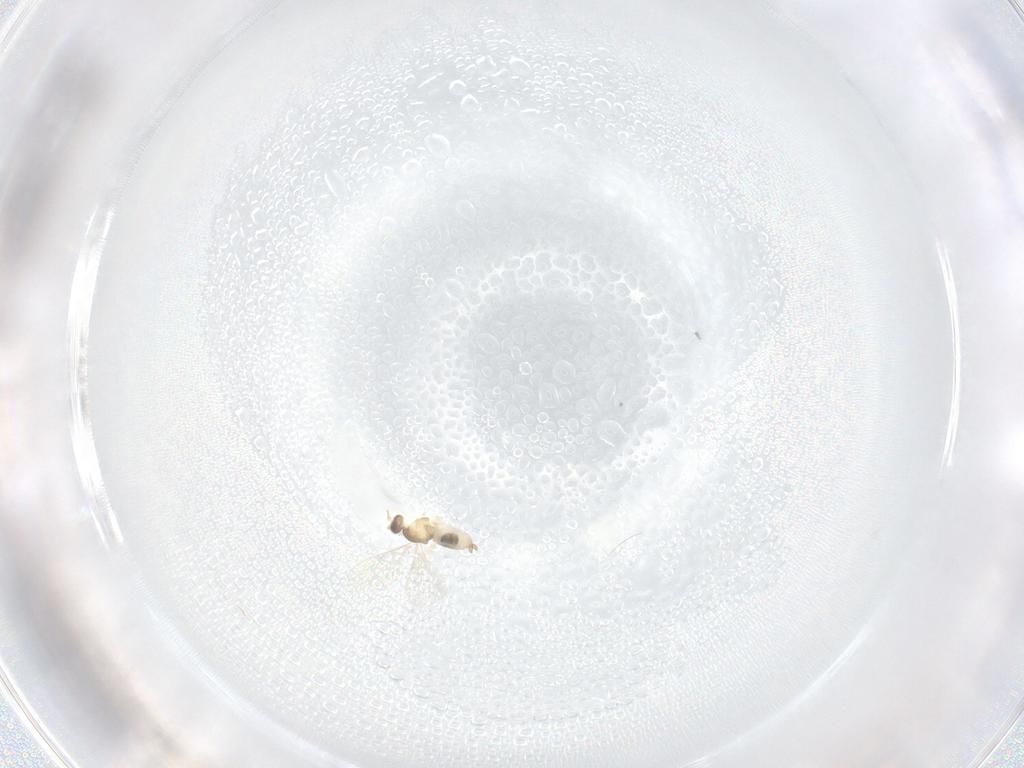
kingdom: Animalia
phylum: Arthropoda
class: Insecta
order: Diptera
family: Cecidomyiidae
